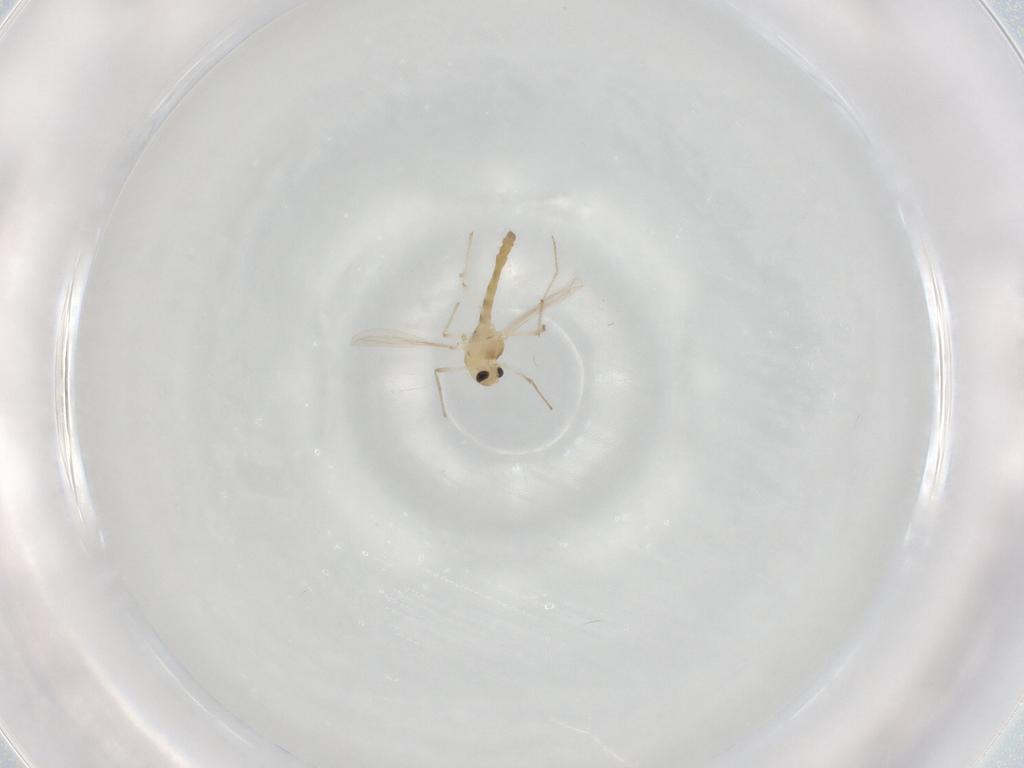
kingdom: Animalia
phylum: Arthropoda
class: Insecta
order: Diptera
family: Chironomidae
